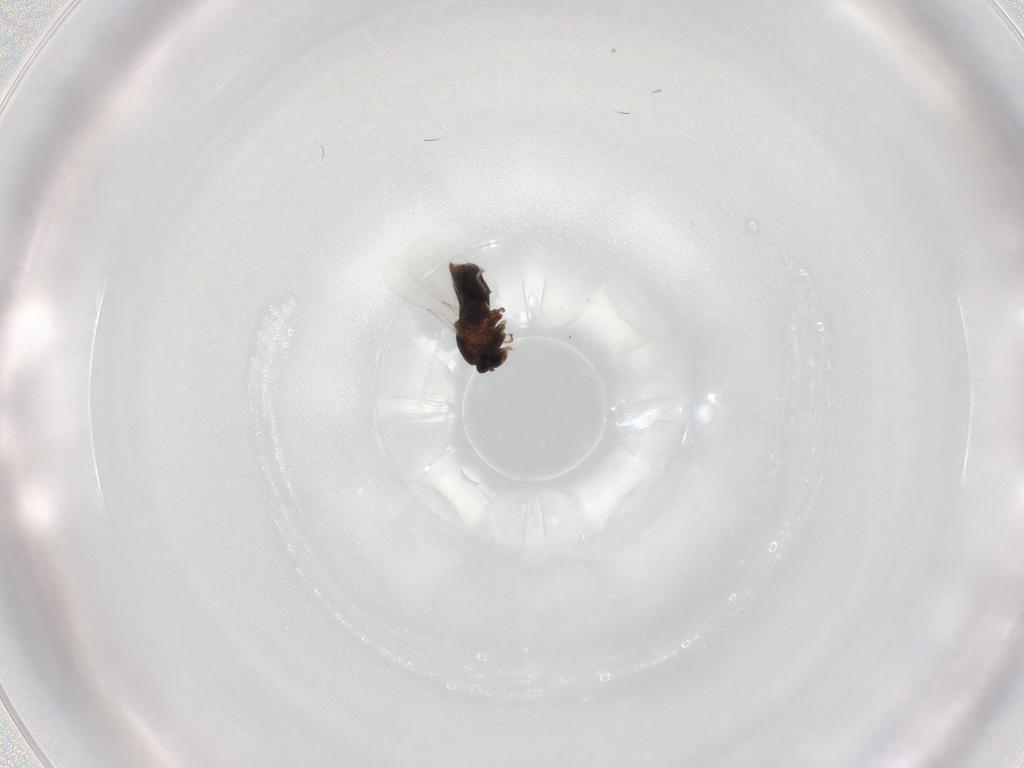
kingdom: Animalia
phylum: Arthropoda
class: Insecta
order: Diptera
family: Scatopsidae
